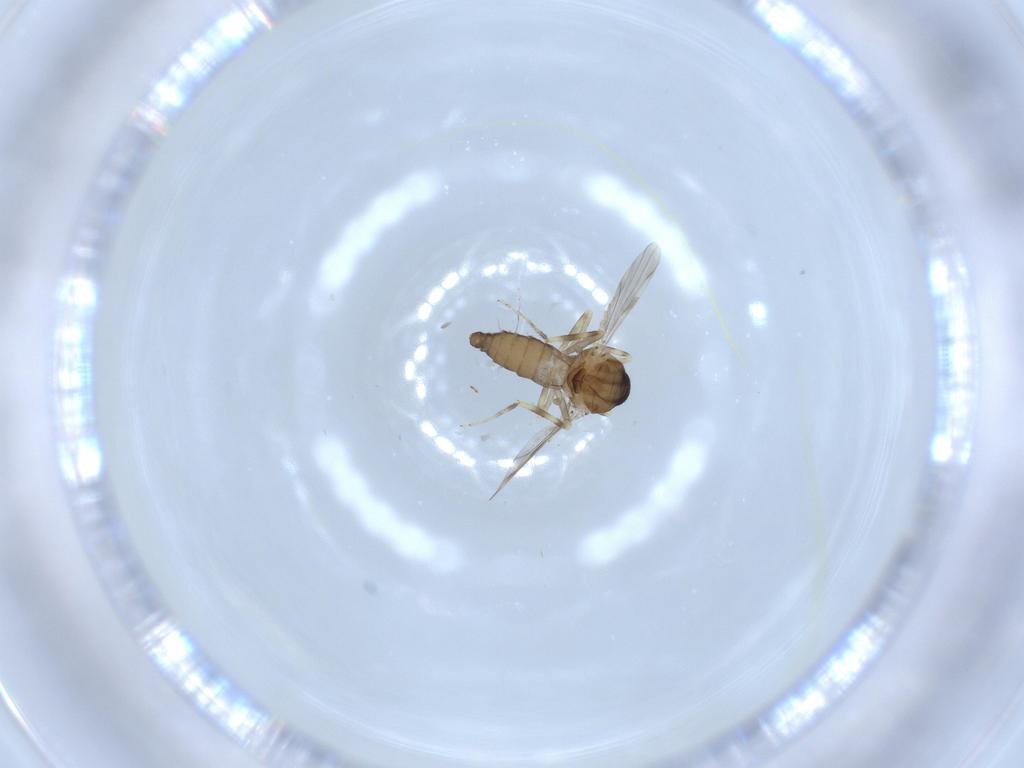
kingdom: Animalia
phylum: Arthropoda
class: Insecta
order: Diptera
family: Ceratopogonidae
